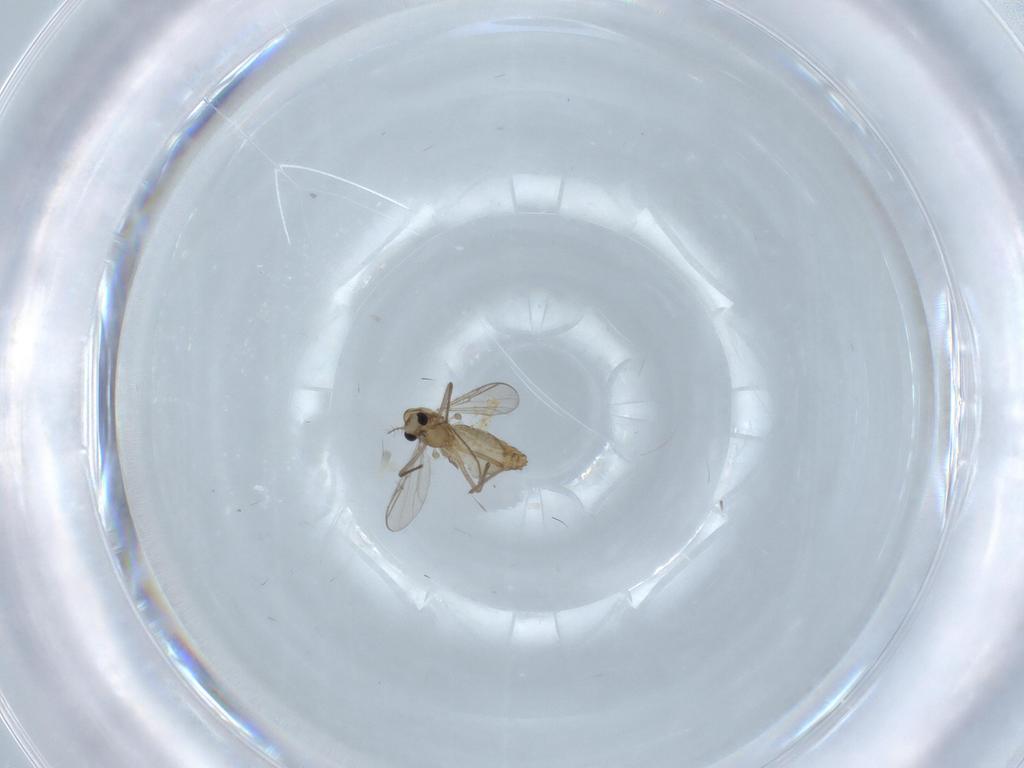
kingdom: Animalia
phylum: Arthropoda
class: Insecta
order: Diptera
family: Chironomidae
